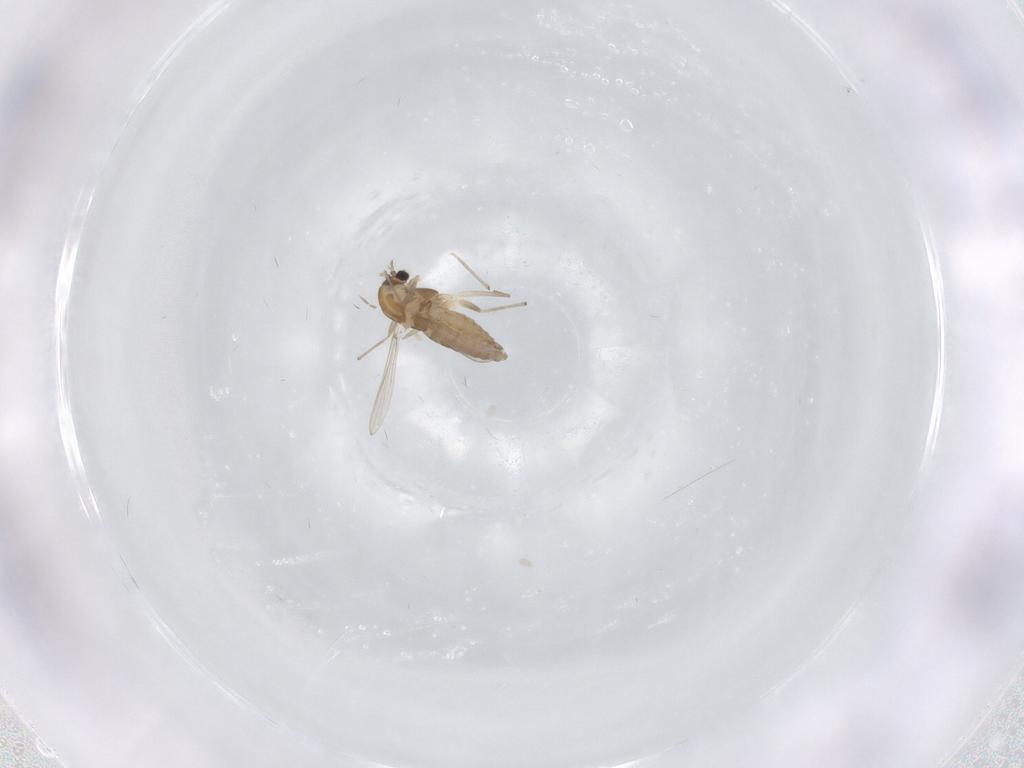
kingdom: Animalia
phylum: Arthropoda
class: Insecta
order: Diptera
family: Chironomidae
